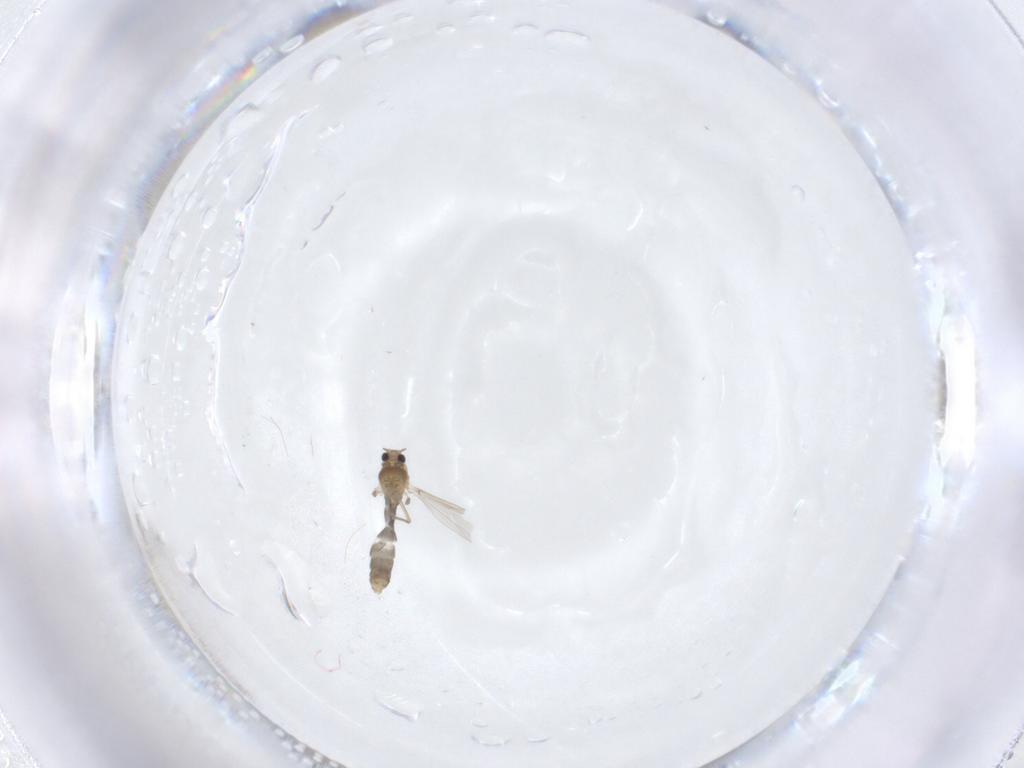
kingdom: Animalia
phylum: Arthropoda
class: Insecta
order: Diptera
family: Chironomidae
